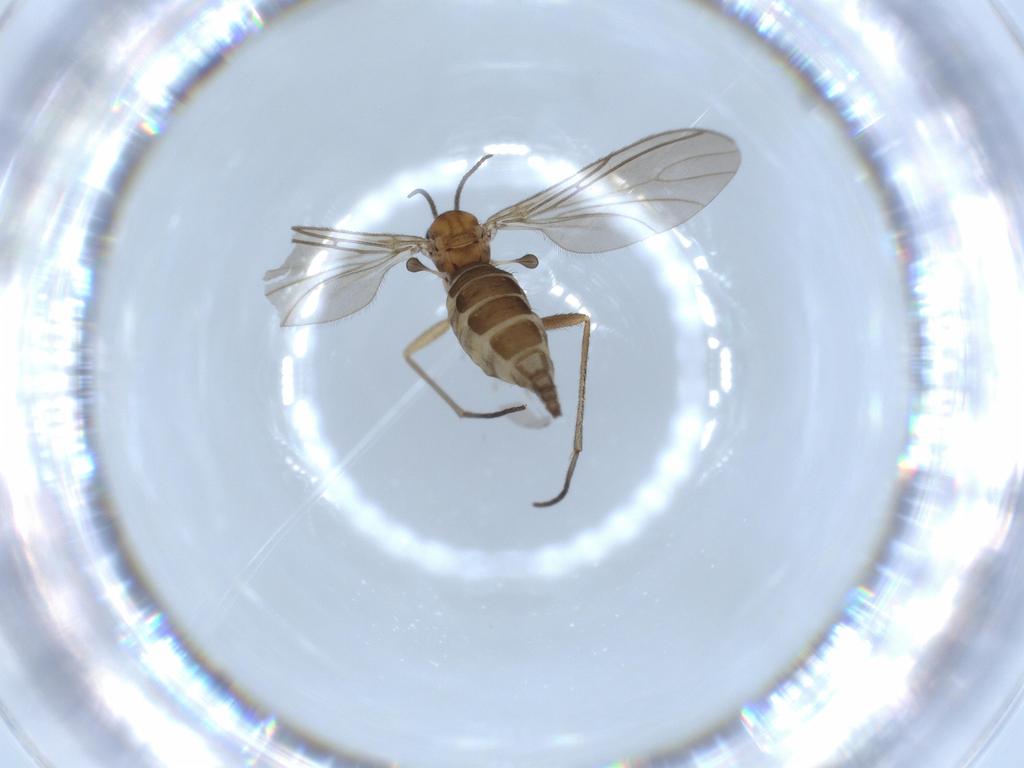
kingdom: Animalia
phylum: Arthropoda
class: Insecta
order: Diptera
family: Sciaridae
